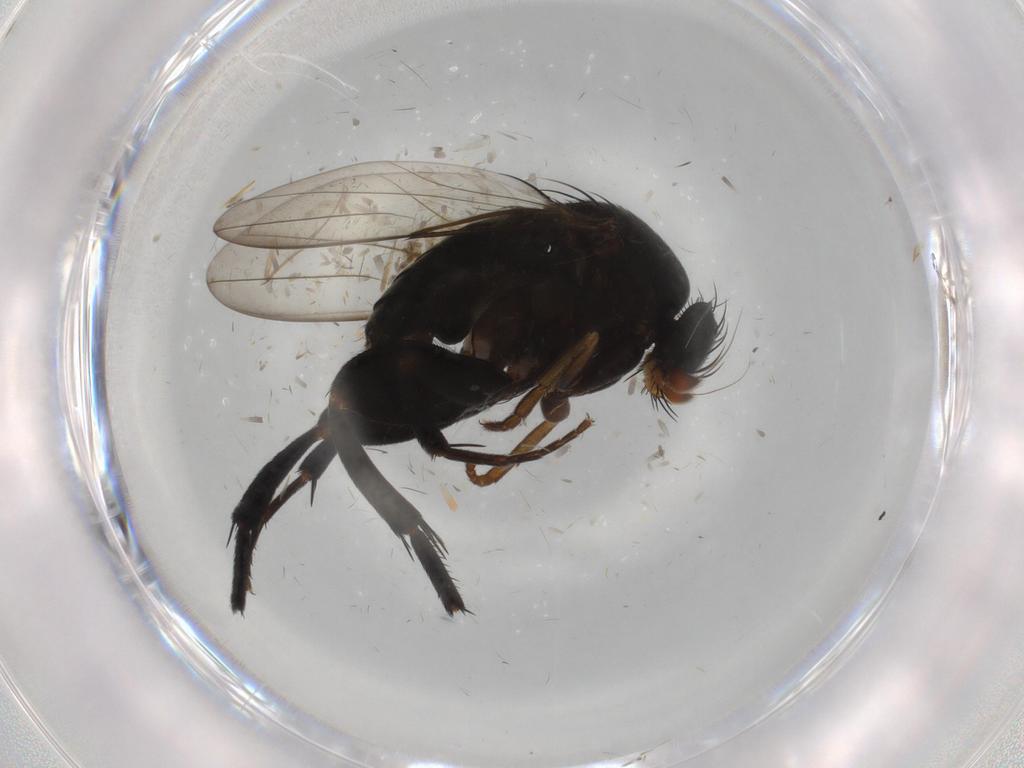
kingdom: Animalia
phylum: Arthropoda
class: Insecta
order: Diptera
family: Phoridae
